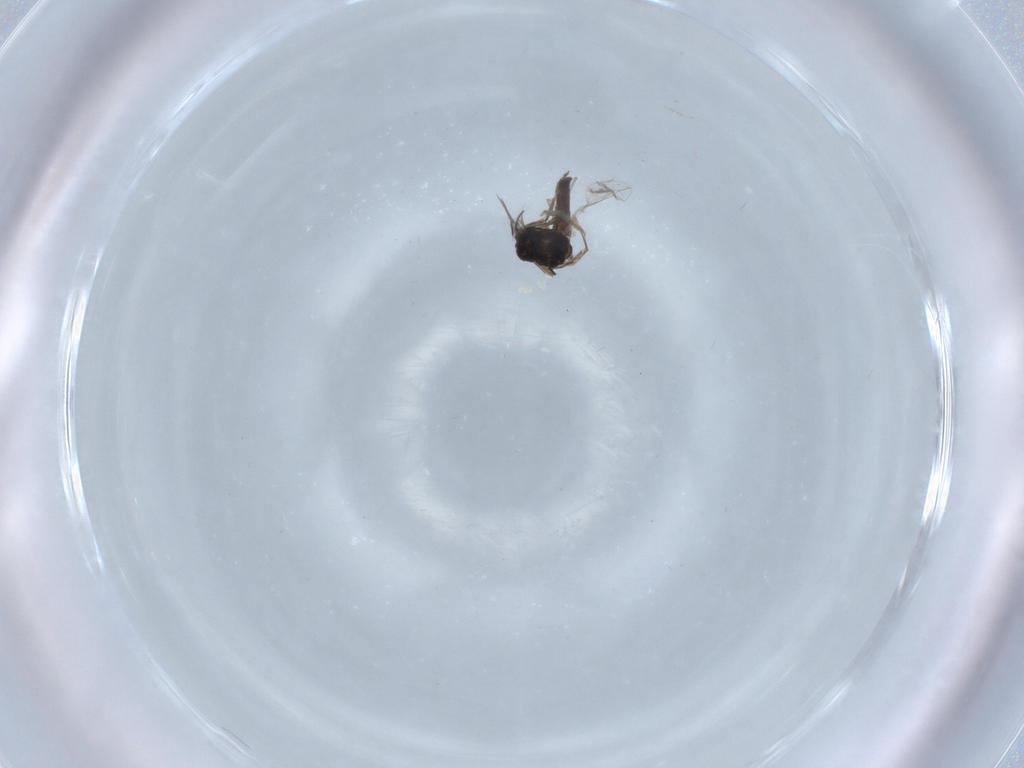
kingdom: Animalia
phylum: Arthropoda
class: Insecta
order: Diptera
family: Cecidomyiidae
